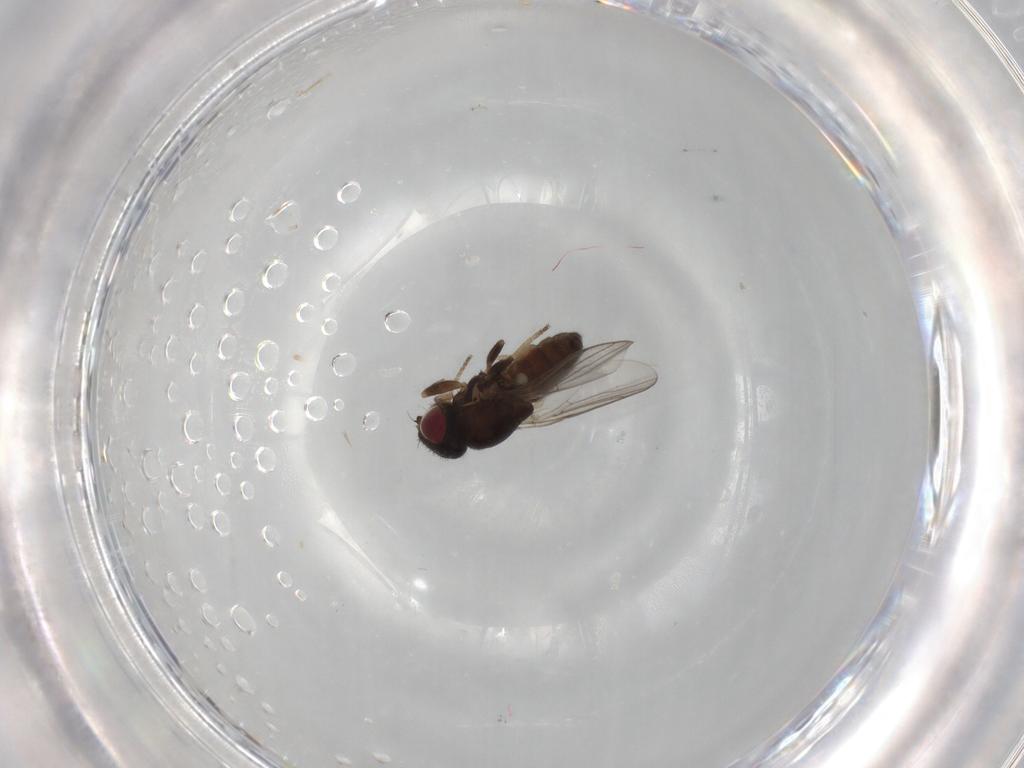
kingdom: Animalia
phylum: Arthropoda
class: Insecta
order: Diptera
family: Chloropidae
